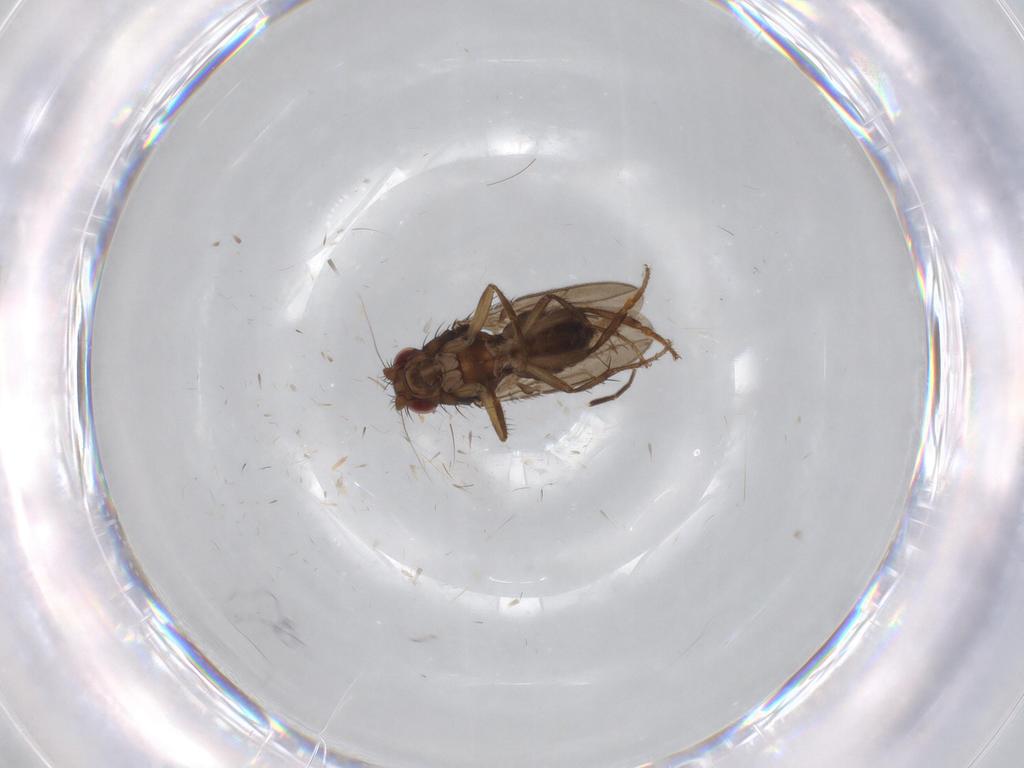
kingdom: Animalia
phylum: Arthropoda
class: Insecta
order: Diptera
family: Phoridae
